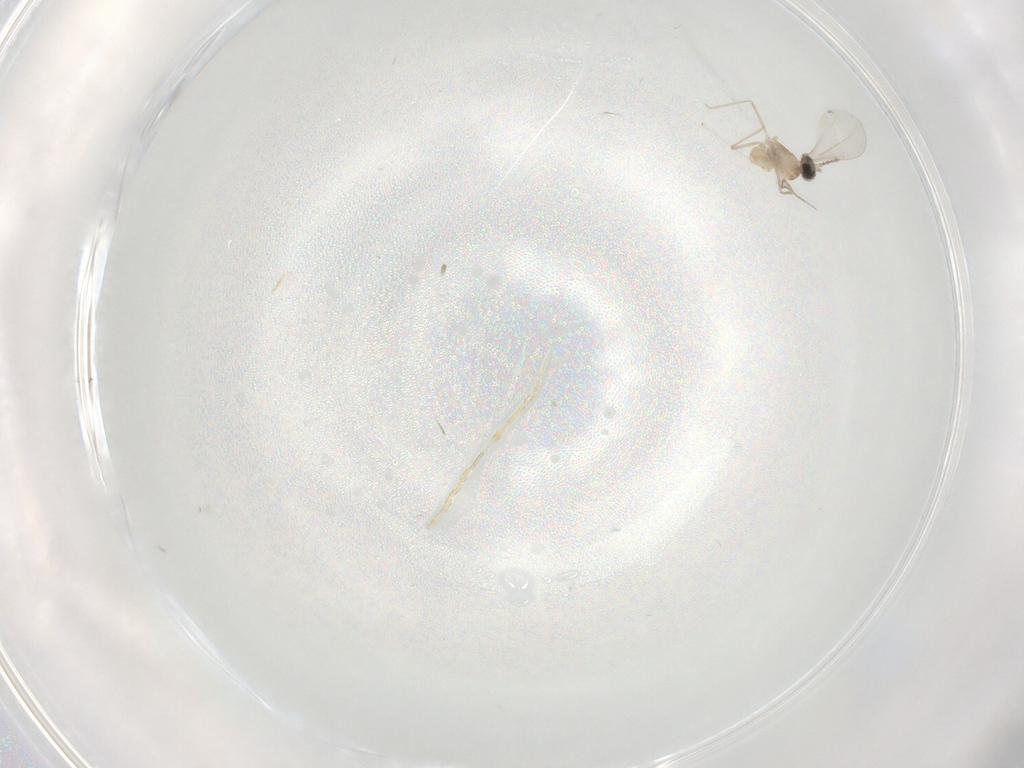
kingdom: Animalia
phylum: Arthropoda
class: Insecta
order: Diptera
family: Cecidomyiidae
